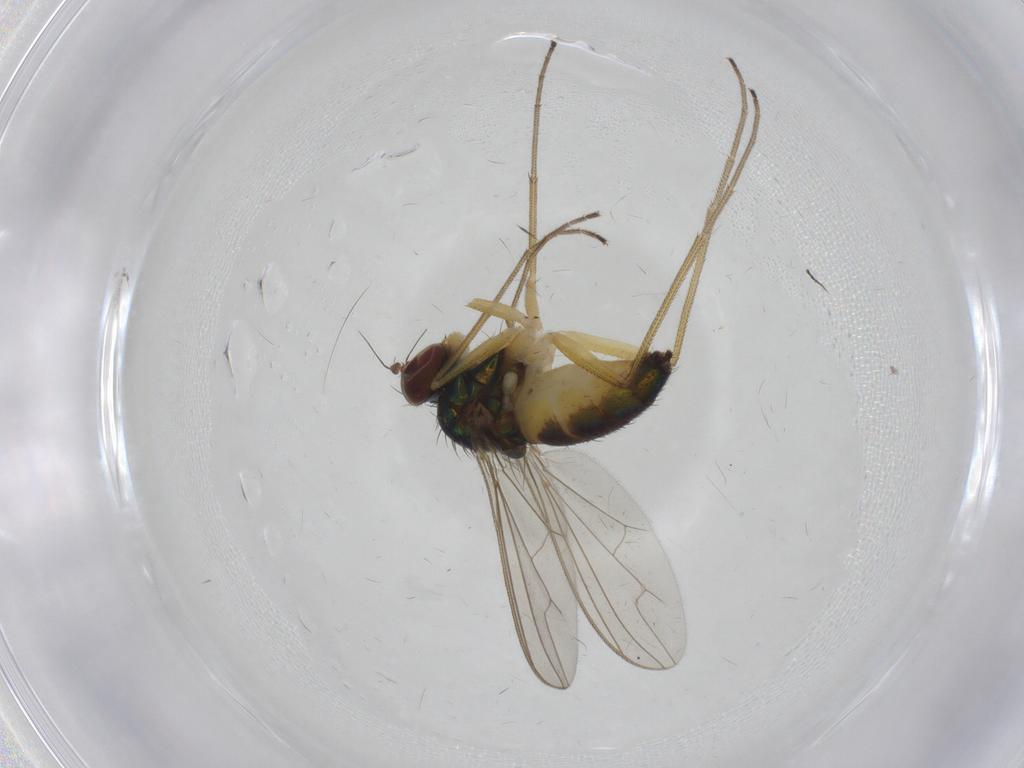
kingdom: Animalia
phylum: Arthropoda
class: Insecta
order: Diptera
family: Dolichopodidae
